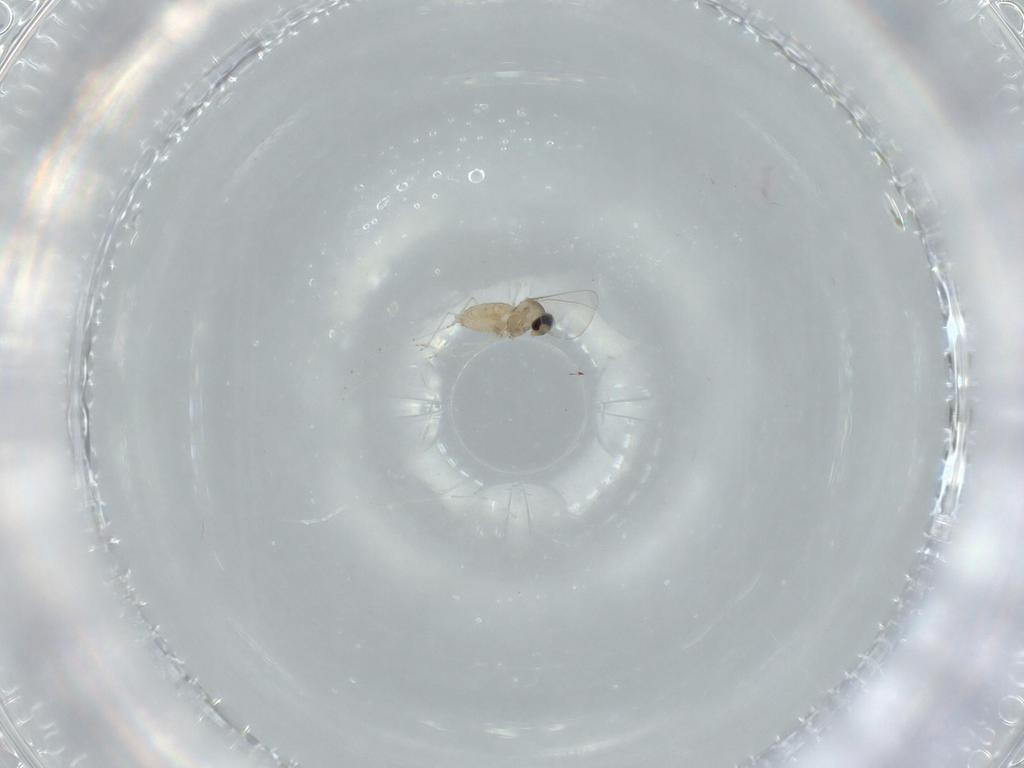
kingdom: Animalia
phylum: Arthropoda
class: Insecta
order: Diptera
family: Cecidomyiidae
